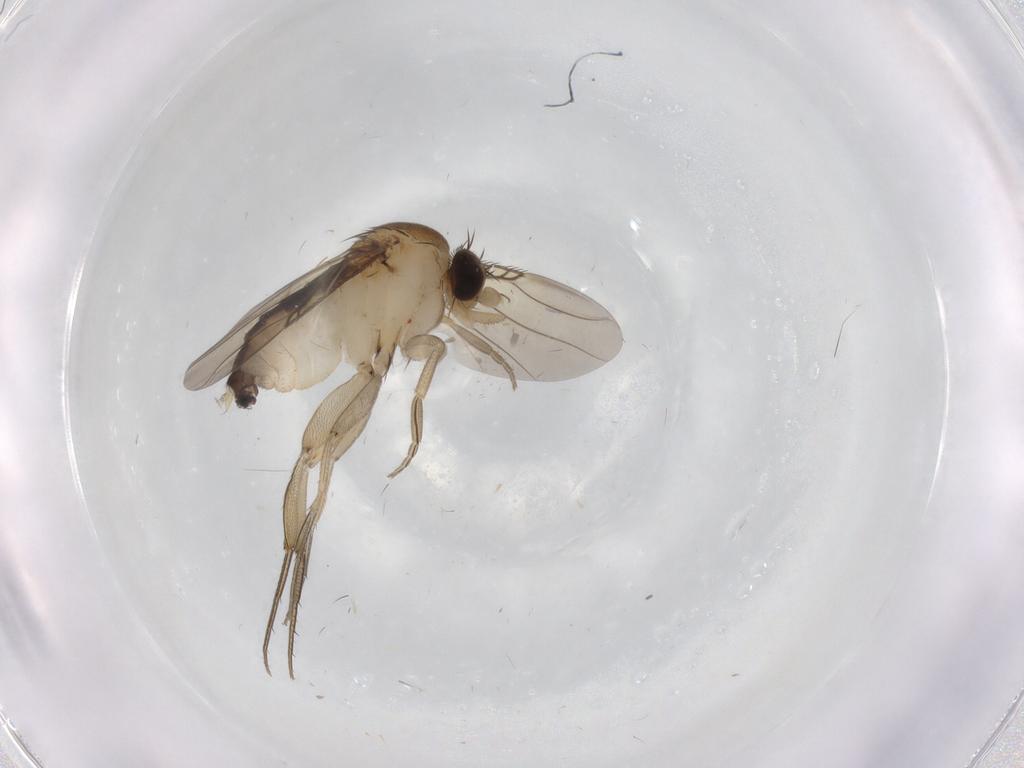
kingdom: Animalia
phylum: Arthropoda
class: Insecta
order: Diptera
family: Phoridae
